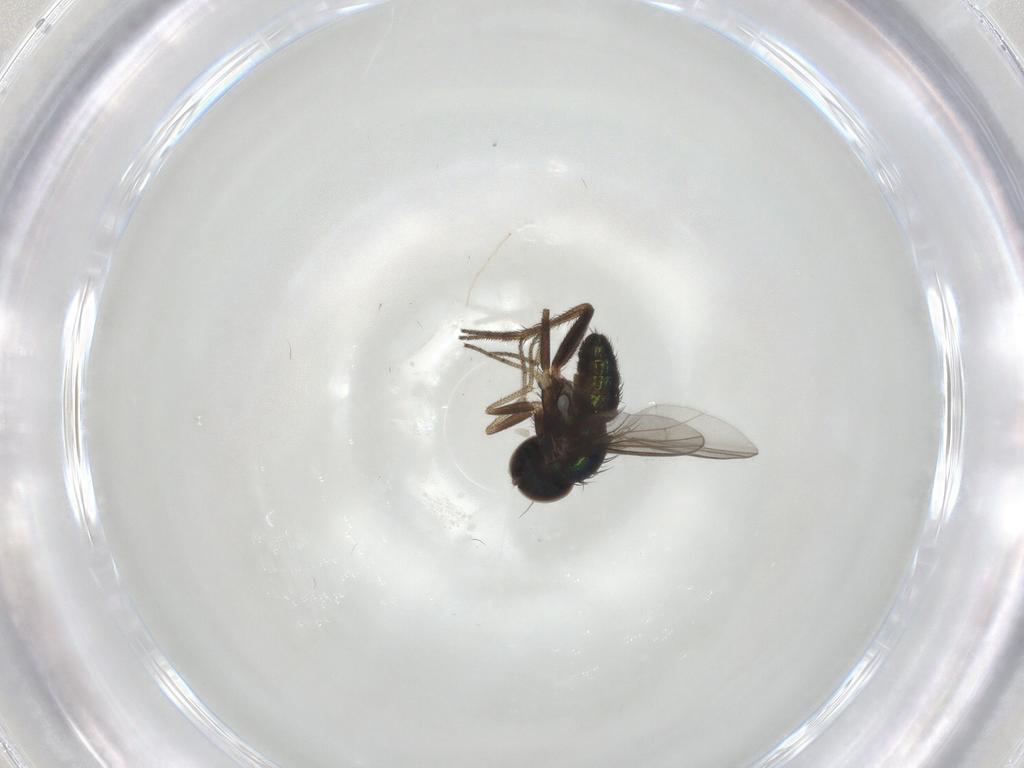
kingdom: Animalia
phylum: Arthropoda
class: Insecta
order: Diptera
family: Dolichopodidae
